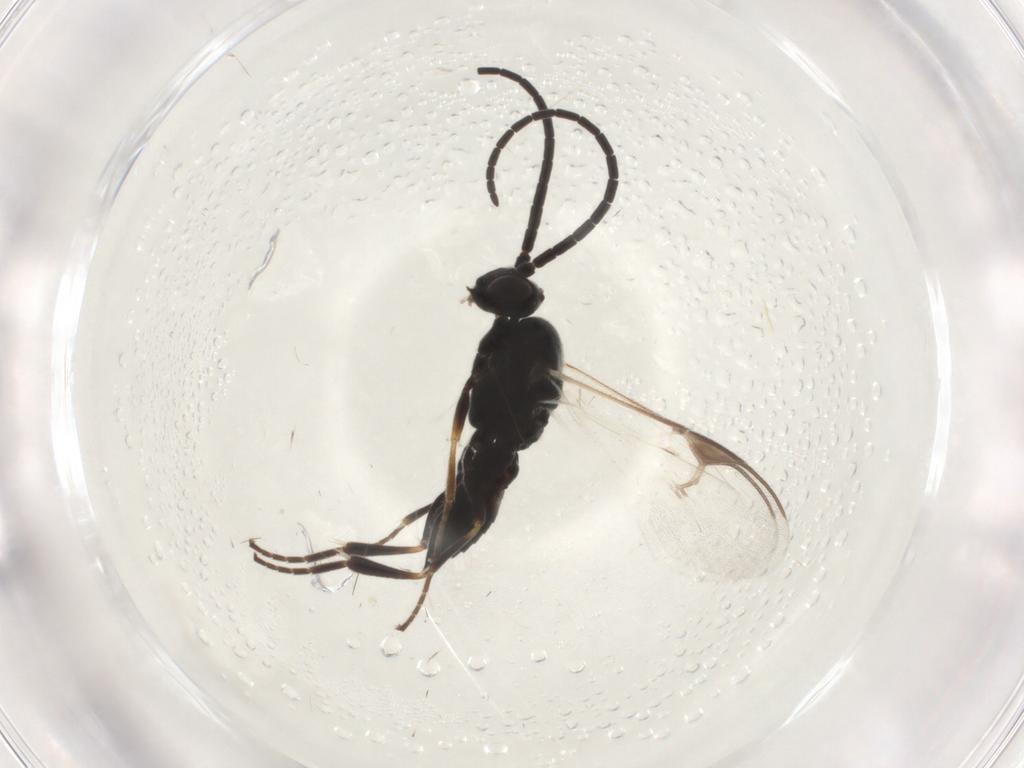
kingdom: Animalia
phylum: Arthropoda
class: Insecta
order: Hymenoptera
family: Braconidae
